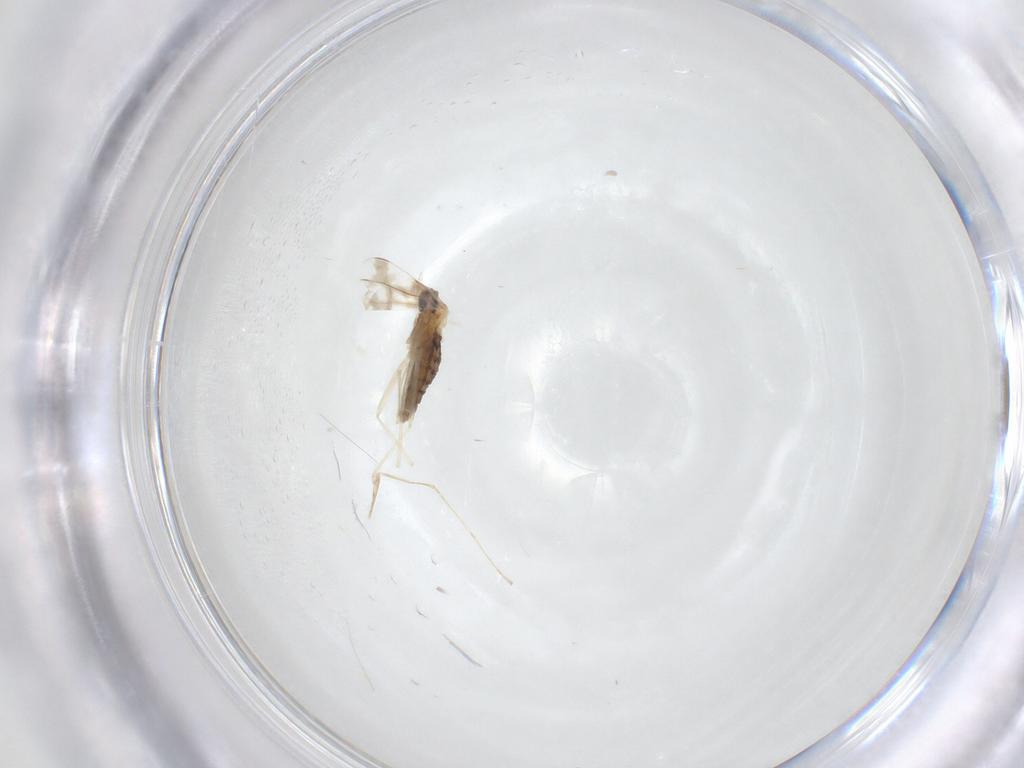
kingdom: Animalia
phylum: Arthropoda
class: Insecta
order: Diptera
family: Cecidomyiidae
